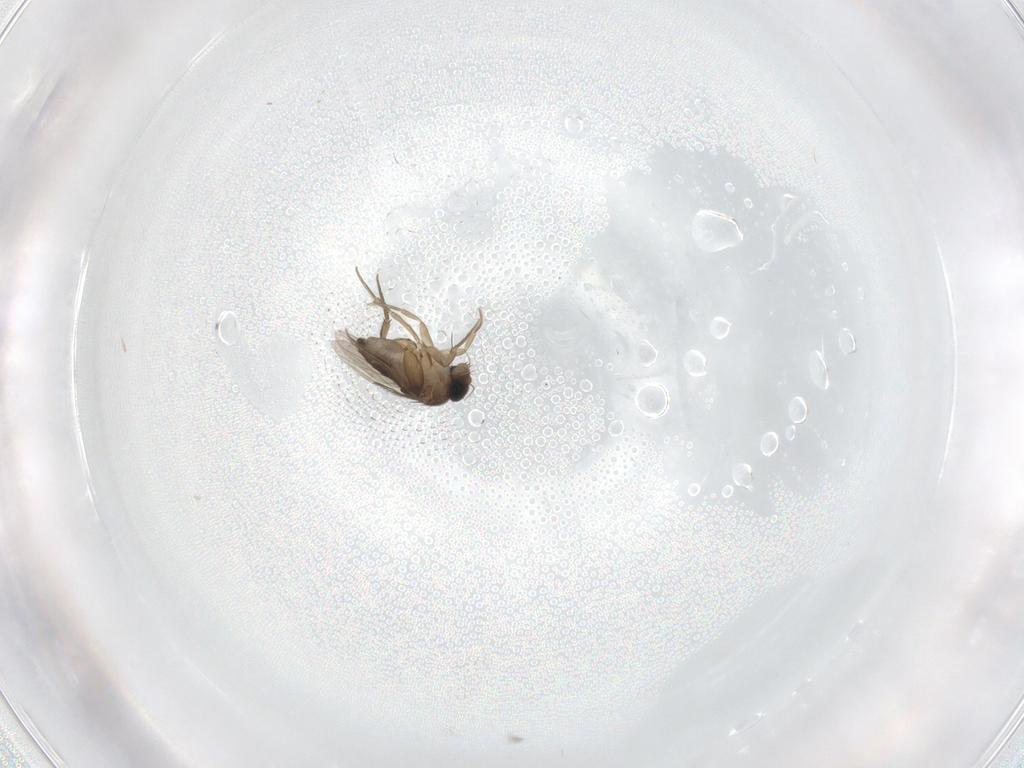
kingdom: Animalia
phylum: Arthropoda
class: Insecta
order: Diptera
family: Phoridae
